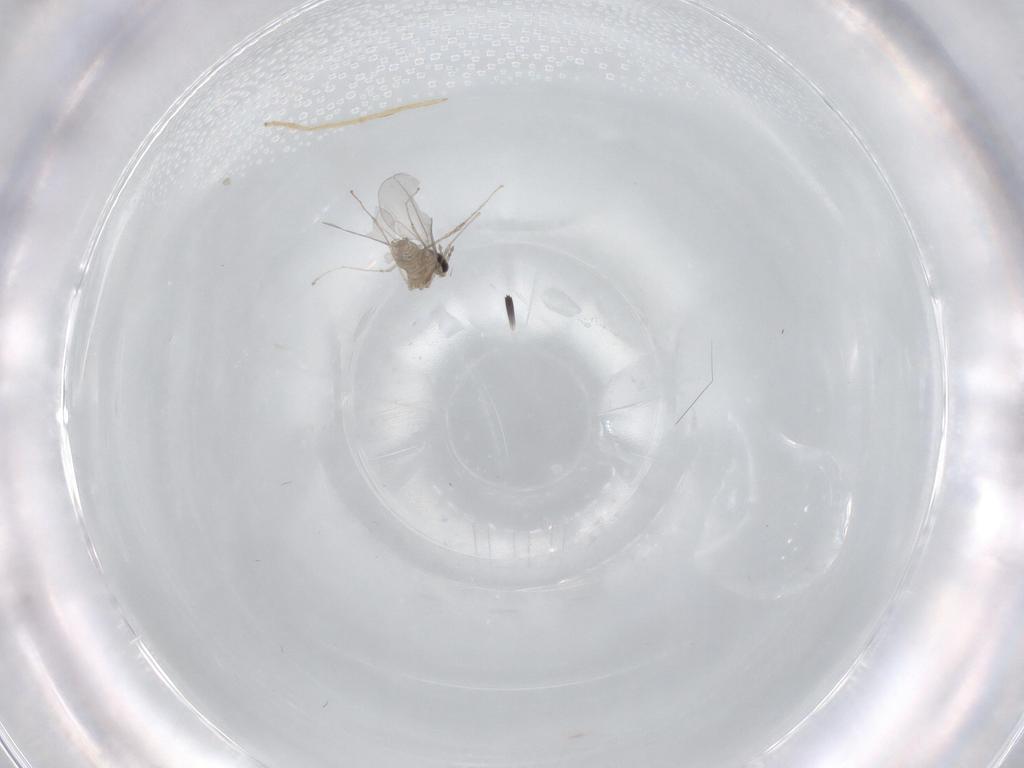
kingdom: Animalia
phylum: Arthropoda
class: Insecta
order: Diptera
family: Chironomidae
